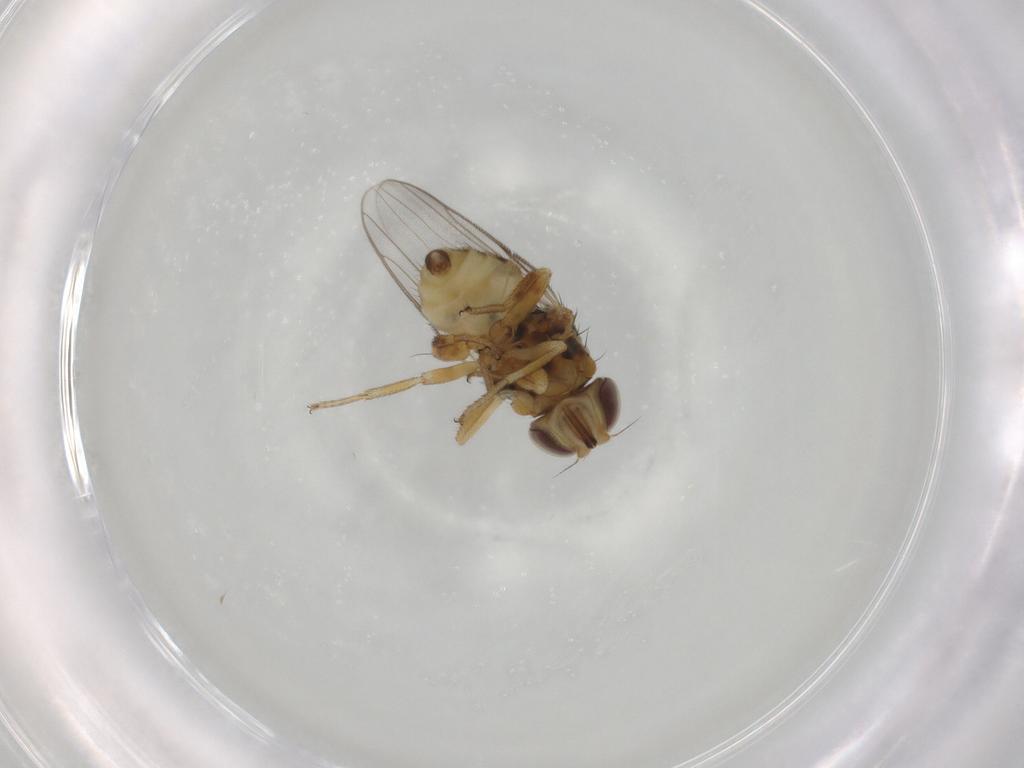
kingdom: Animalia
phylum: Arthropoda
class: Insecta
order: Diptera
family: Chloropidae
